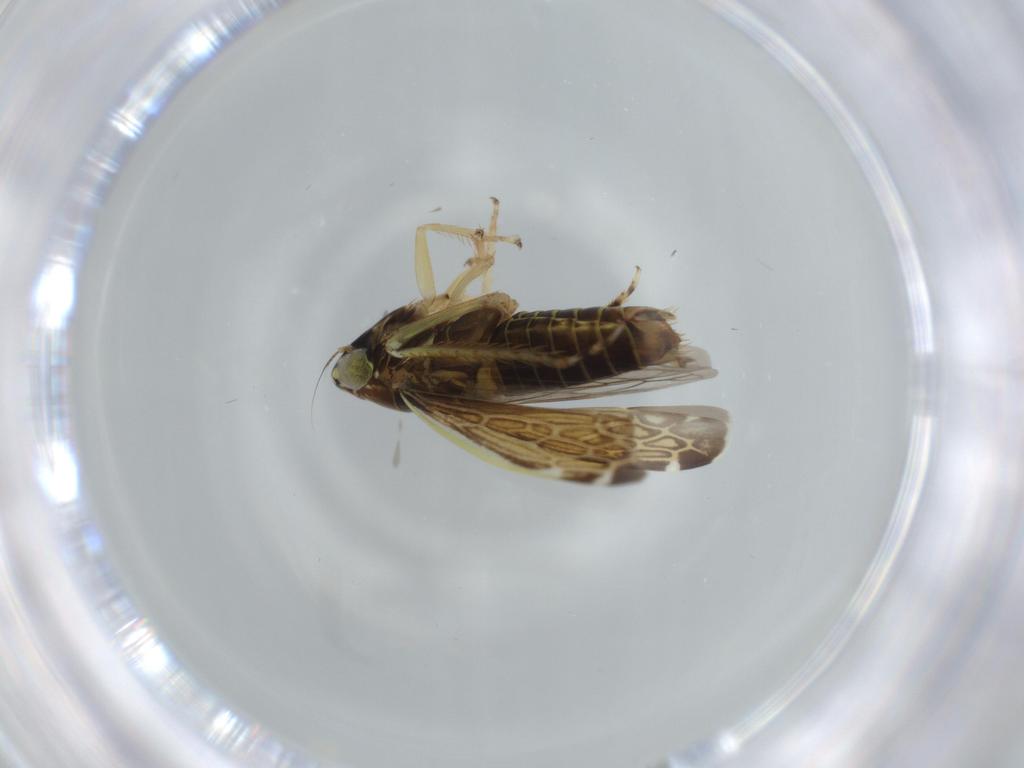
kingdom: Animalia
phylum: Arthropoda
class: Insecta
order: Hemiptera
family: Cicadellidae
